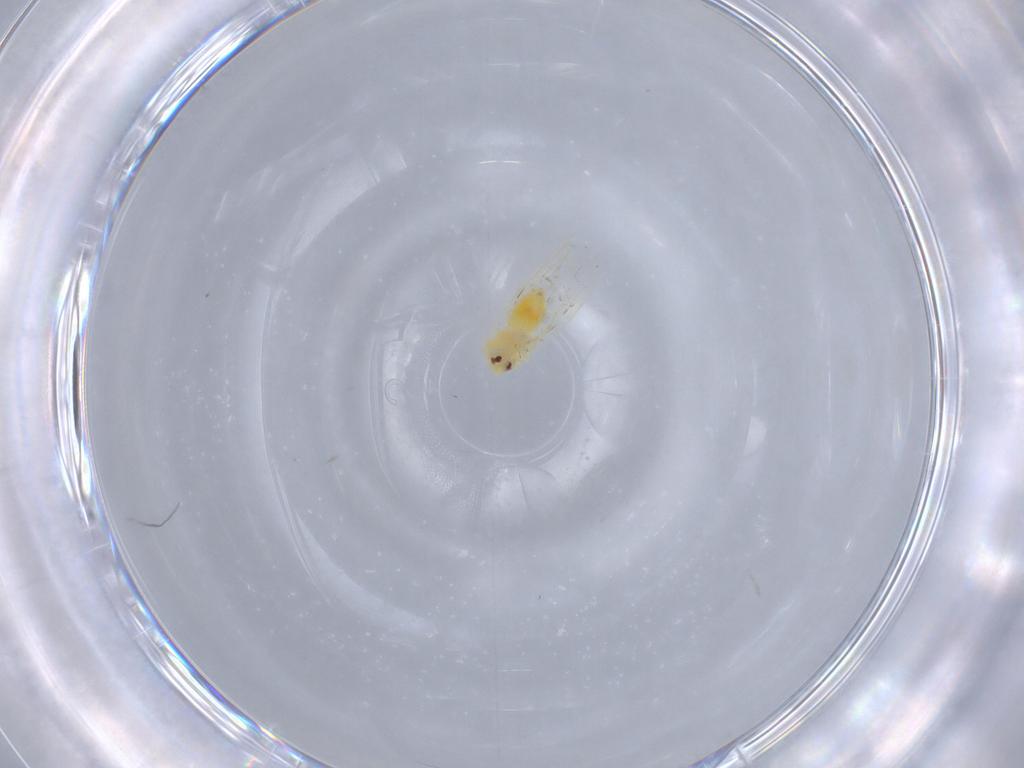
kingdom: Animalia
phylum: Arthropoda
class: Insecta
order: Hemiptera
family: Aleyrodidae
